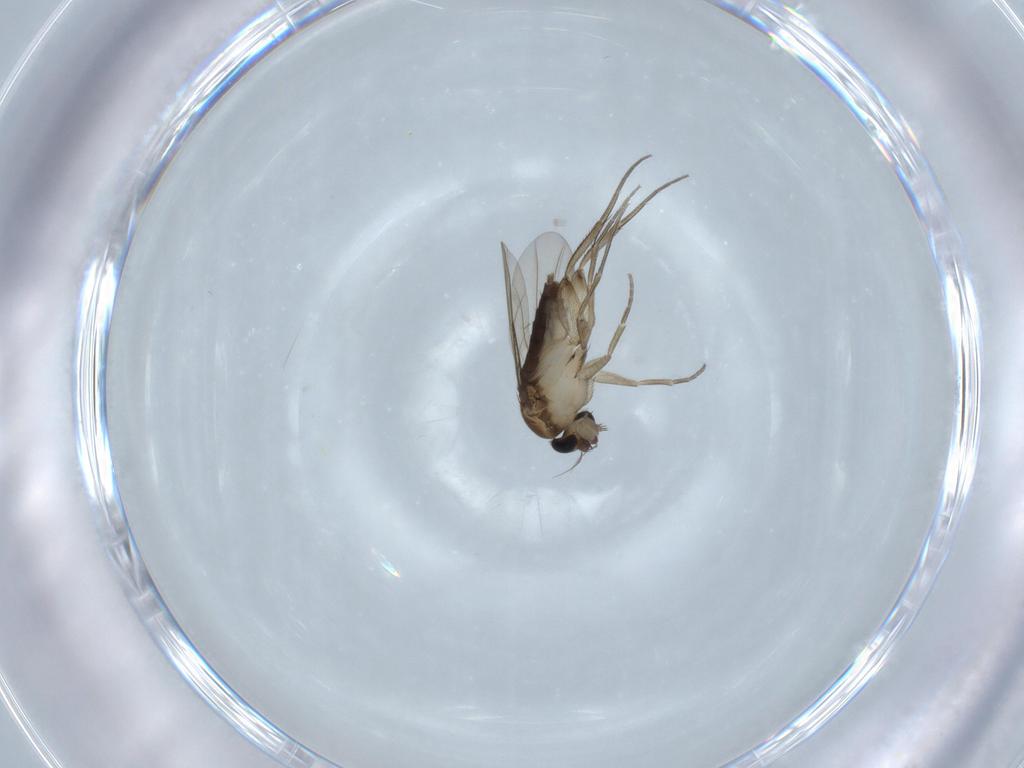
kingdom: Animalia
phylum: Arthropoda
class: Insecta
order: Diptera
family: Phoridae
